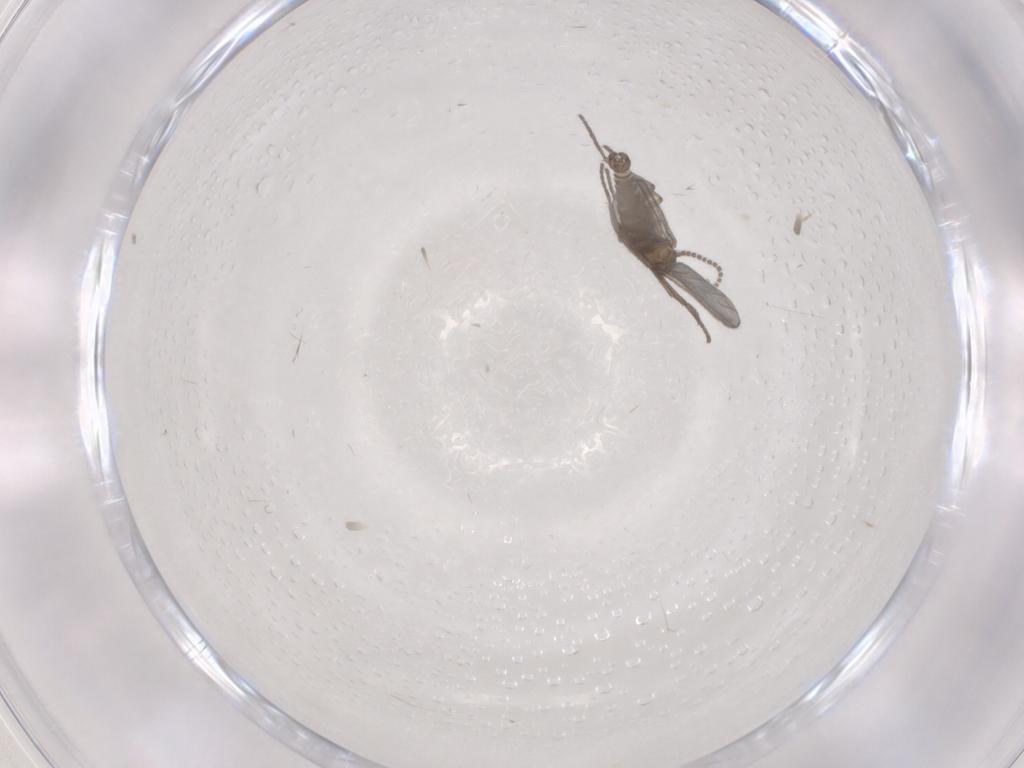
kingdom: Animalia
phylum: Arthropoda
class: Insecta
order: Diptera
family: Sciaridae
